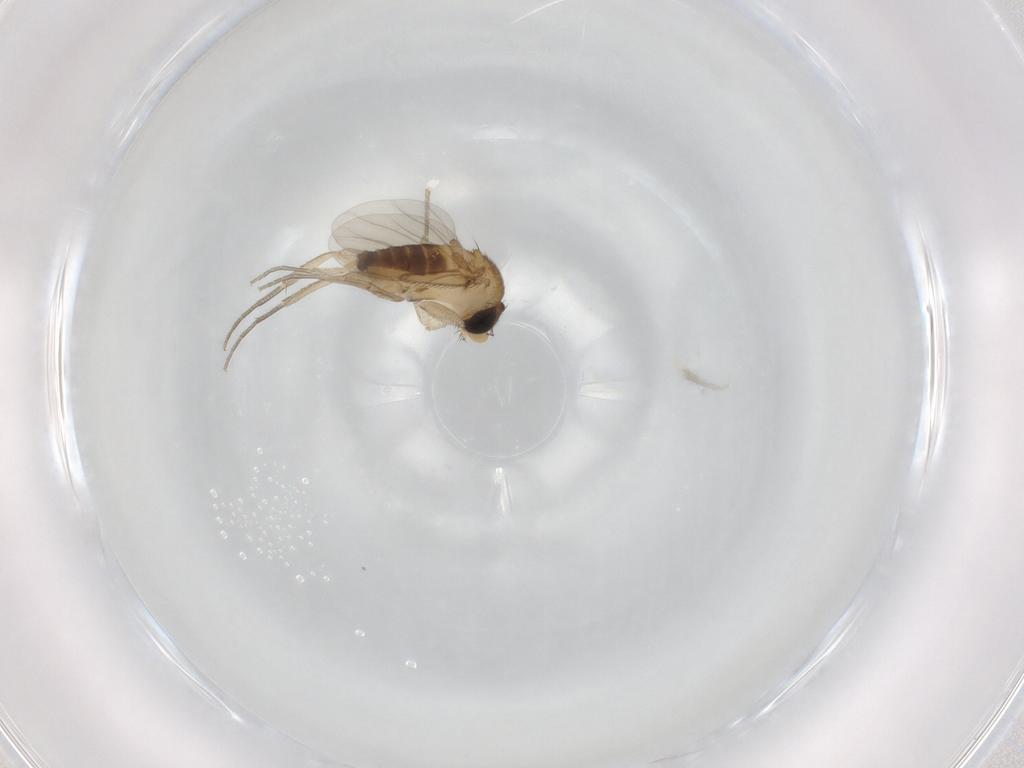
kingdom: Animalia
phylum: Arthropoda
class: Insecta
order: Diptera
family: Phoridae
